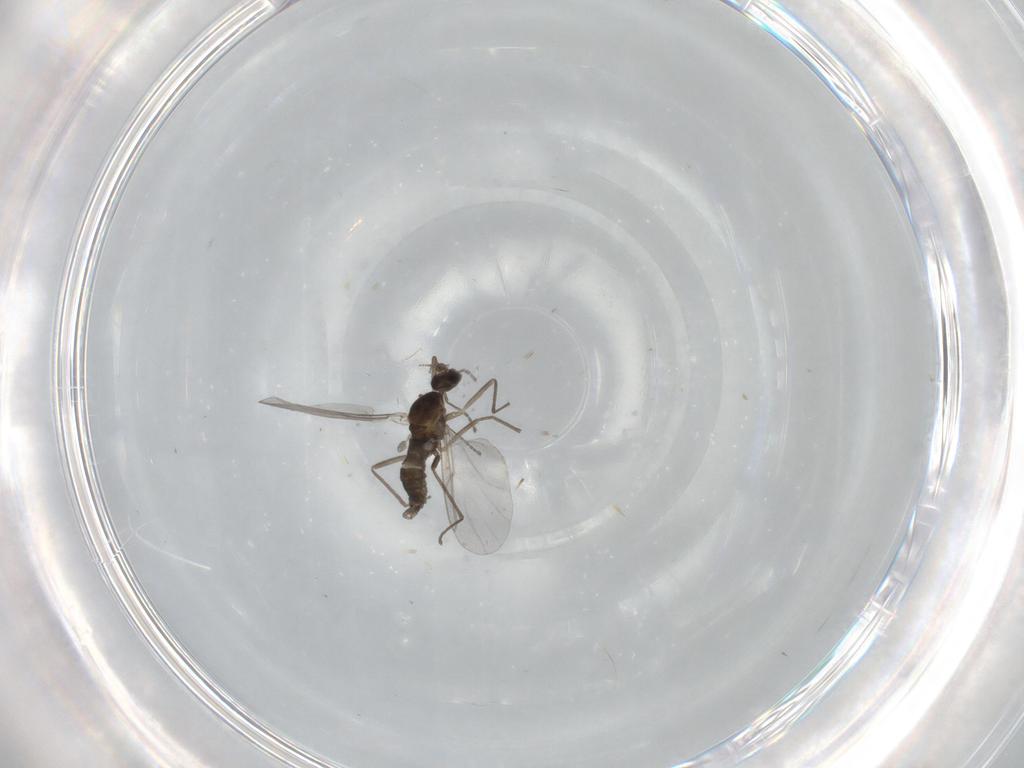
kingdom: Animalia
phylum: Arthropoda
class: Insecta
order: Diptera
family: Cecidomyiidae
